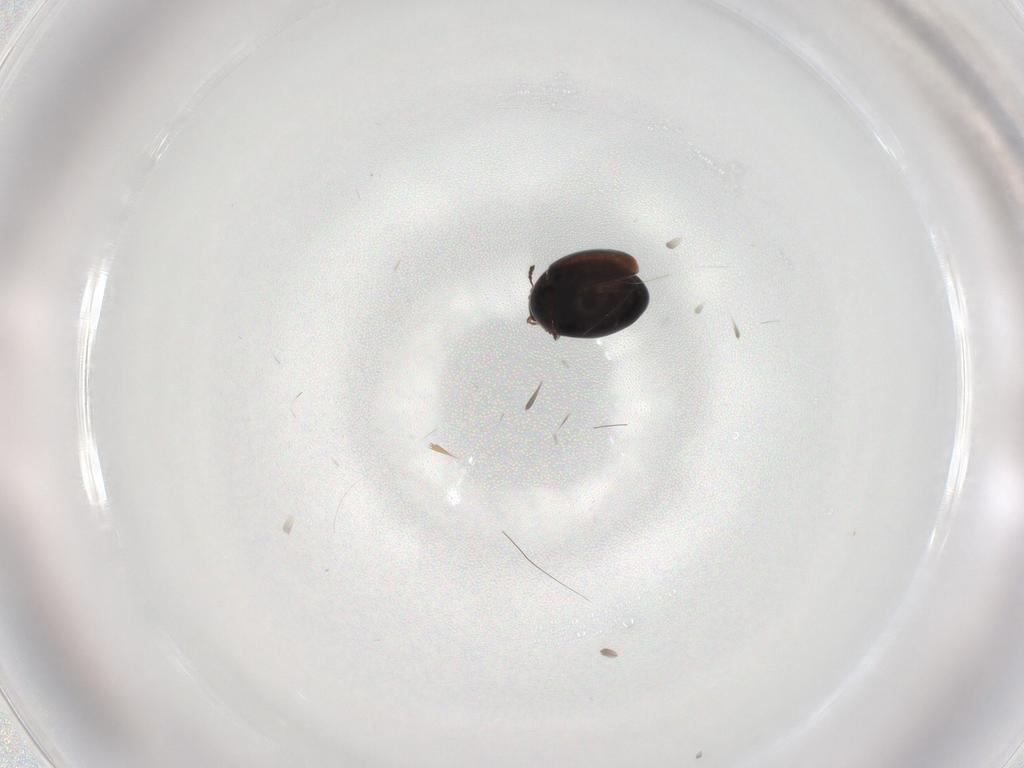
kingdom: Animalia
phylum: Arthropoda
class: Insecta
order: Coleoptera
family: Corylophidae
